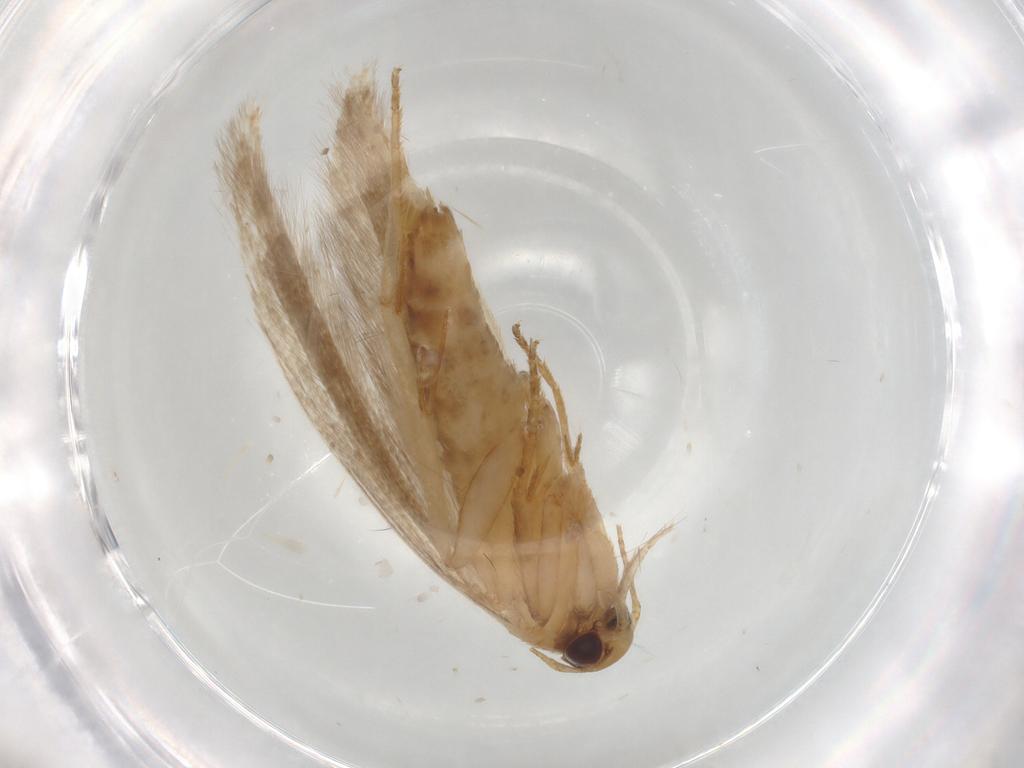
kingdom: Animalia
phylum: Arthropoda
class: Insecta
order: Lepidoptera
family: Gelechiidae
